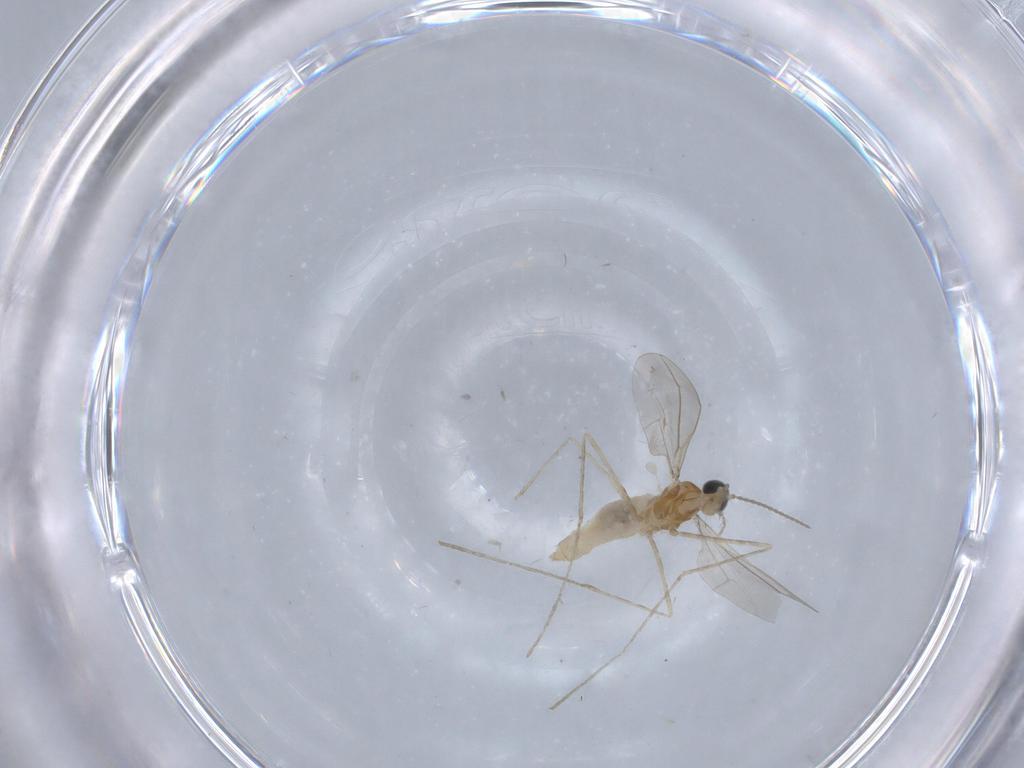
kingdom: Animalia
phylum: Arthropoda
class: Insecta
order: Diptera
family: Cecidomyiidae
